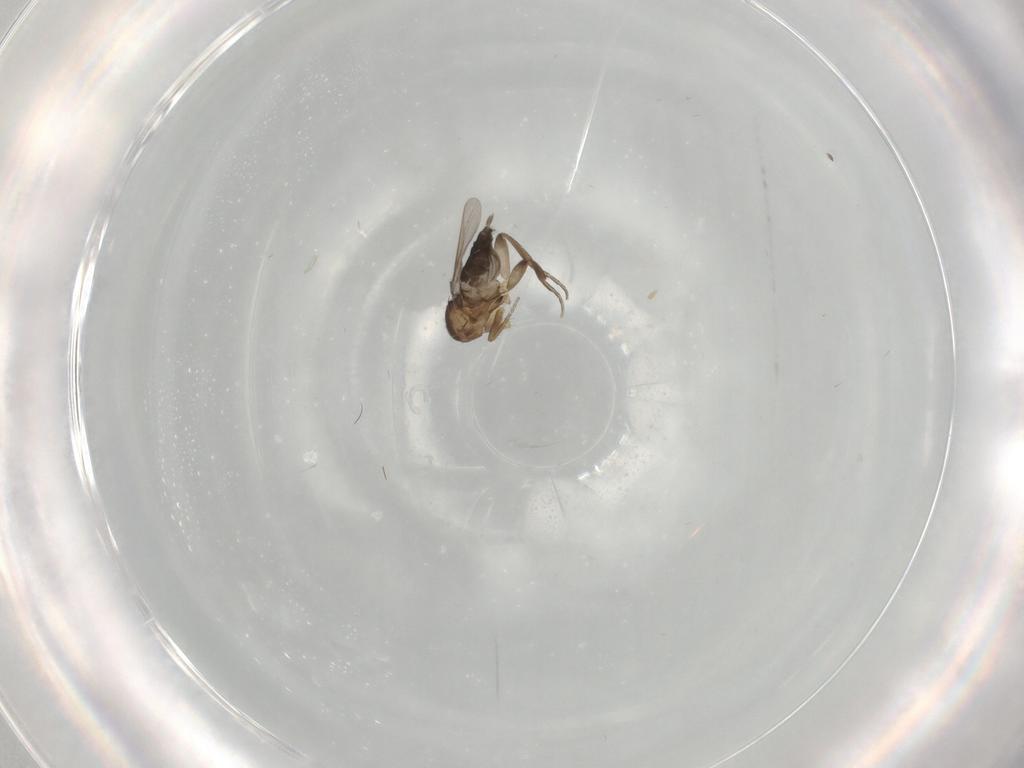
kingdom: Animalia
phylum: Arthropoda
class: Insecta
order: Diptera
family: Phoridae
